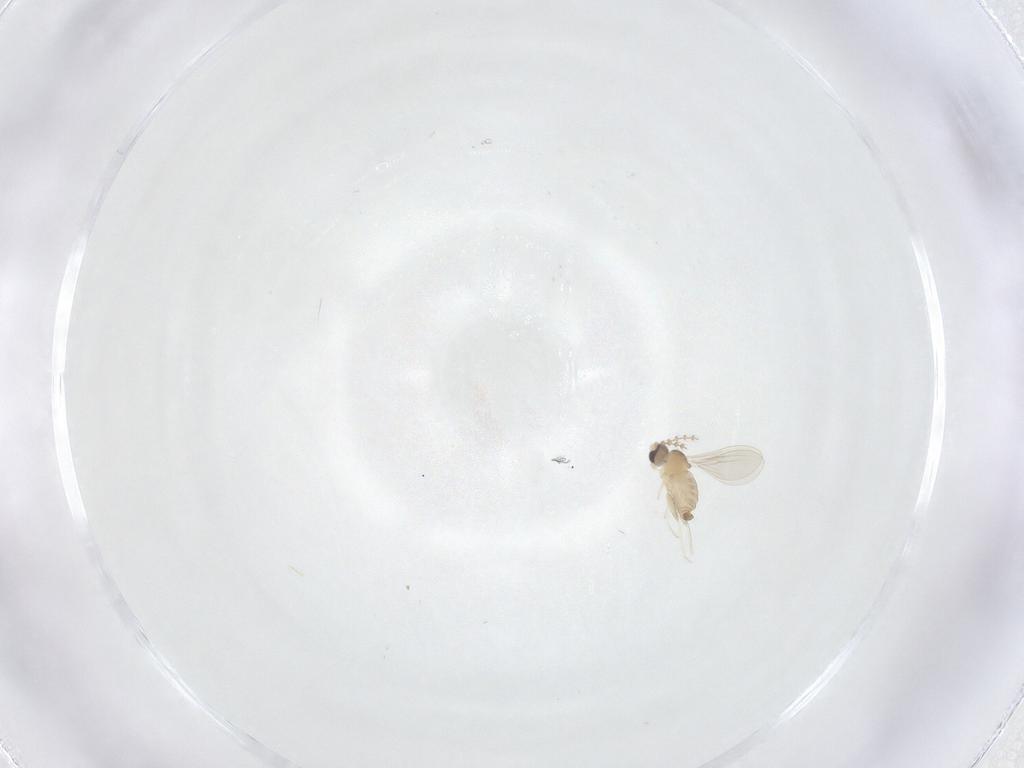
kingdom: Animalia
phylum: Arthropoda
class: Insecta
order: Diptera
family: Cecidomyiidae
